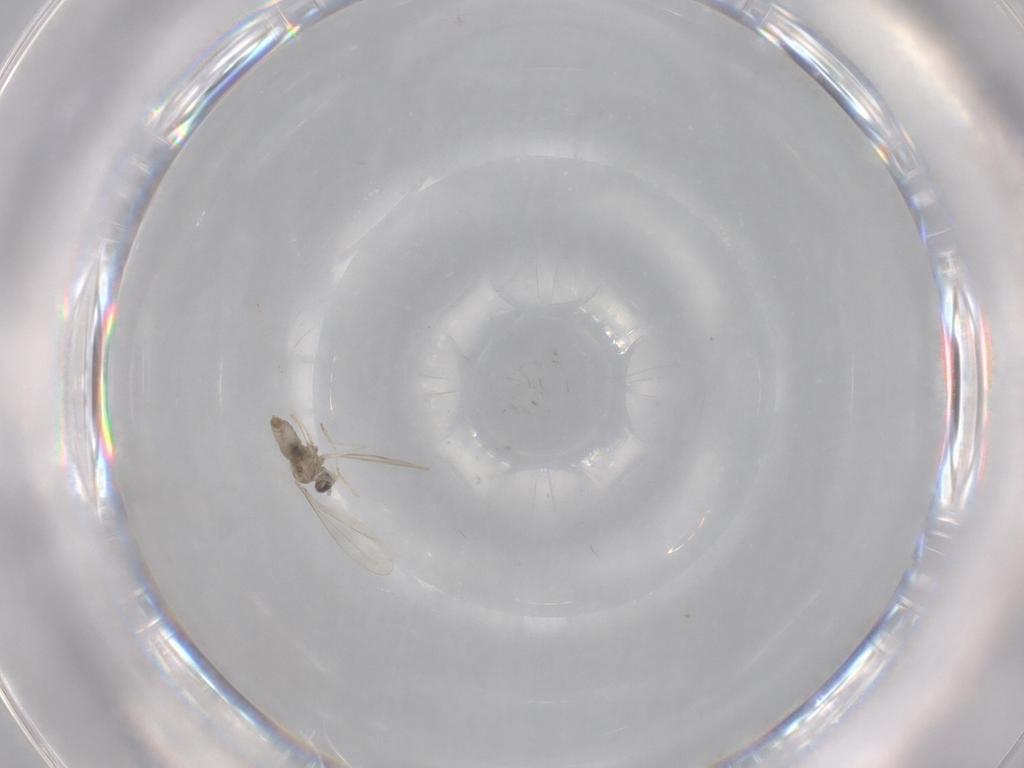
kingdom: Animalia
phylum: Arthropoda
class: Insecta
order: Diptera
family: Cecidomyiidae
